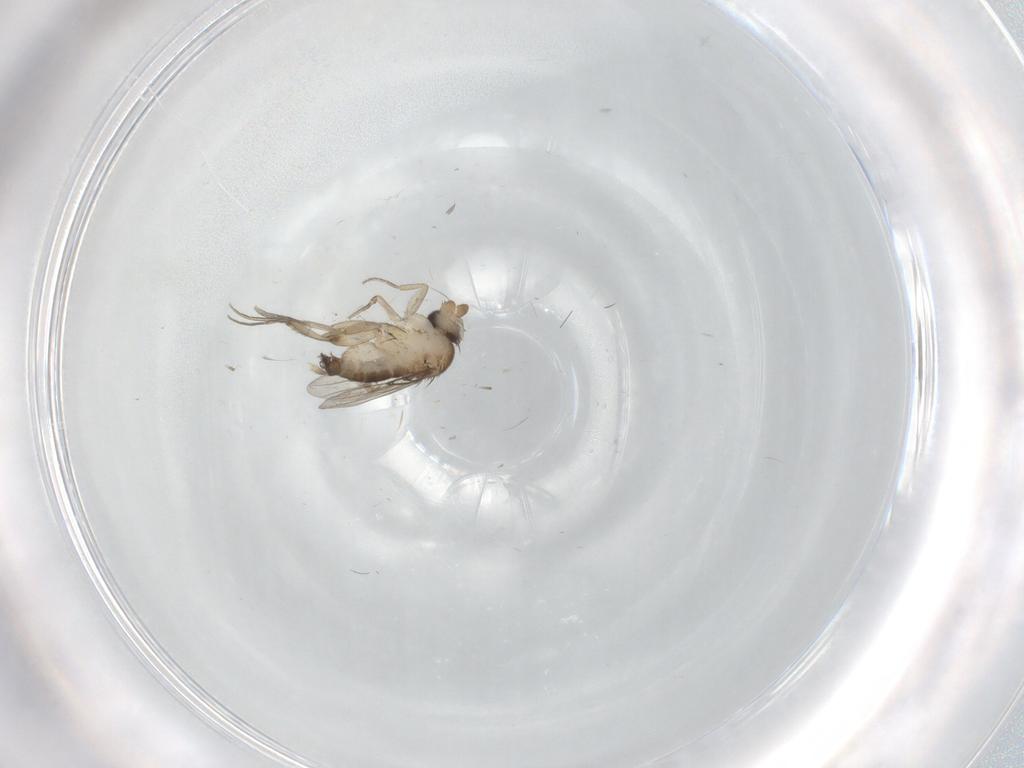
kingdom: Animalia
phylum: Arthropoda
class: Insecta
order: Diptera
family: Phoridae
